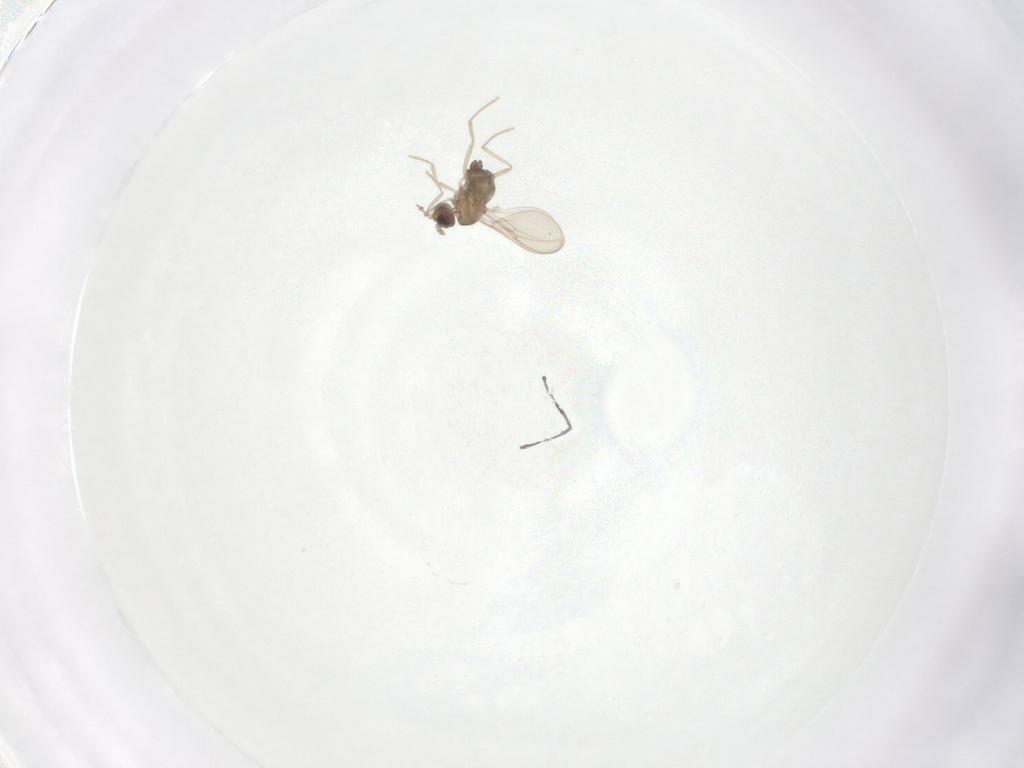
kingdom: Animalia
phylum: Arthropoda
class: Insecta
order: Diptera
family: Cecidomyiidae
